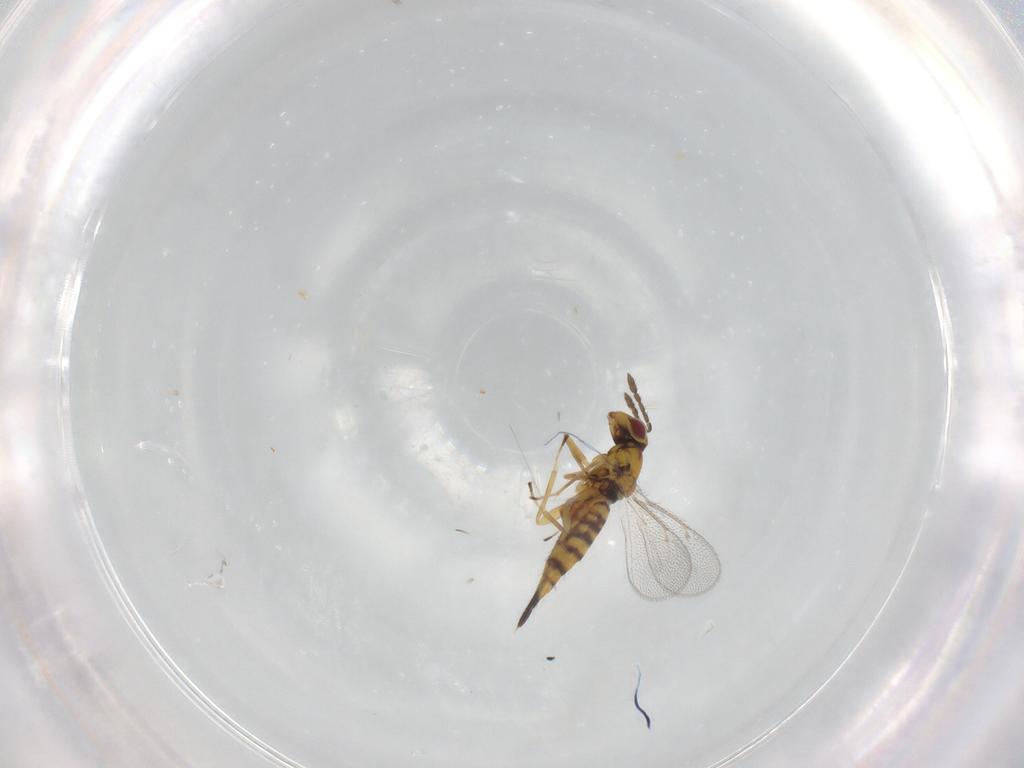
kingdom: Animalia
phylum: Arthropoda
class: Insecta
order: Hymenoptera
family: Eulophidae
